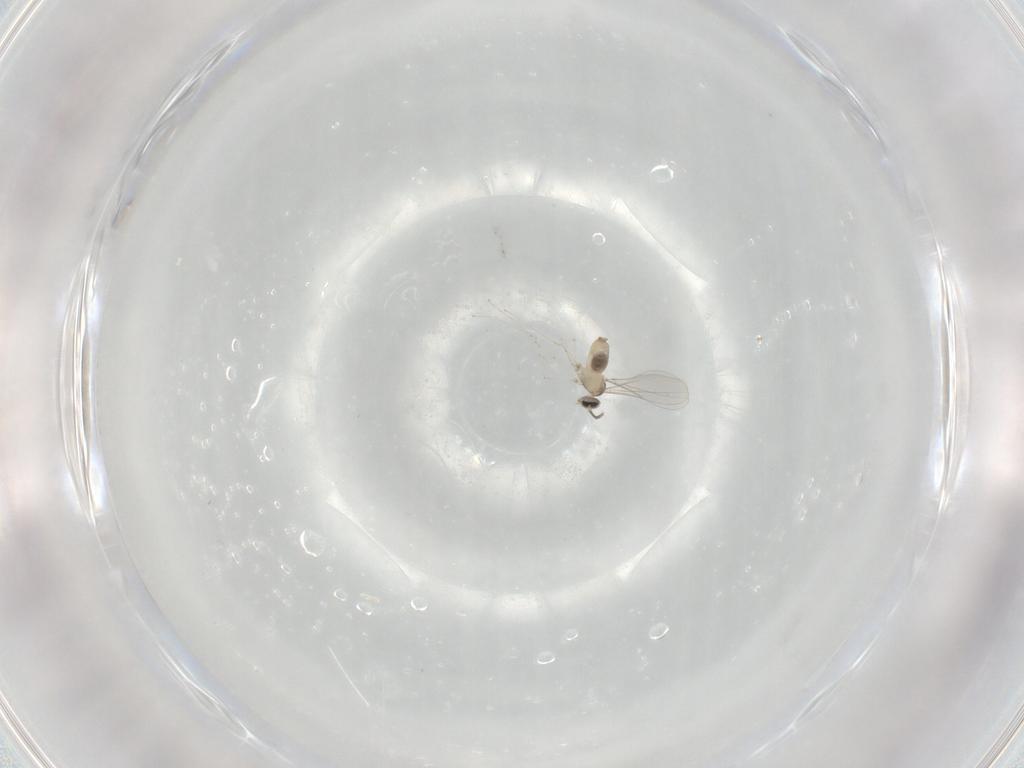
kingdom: Animalia
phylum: Arthropoda
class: Insecta
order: Diptera
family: Cecidomyiidae
